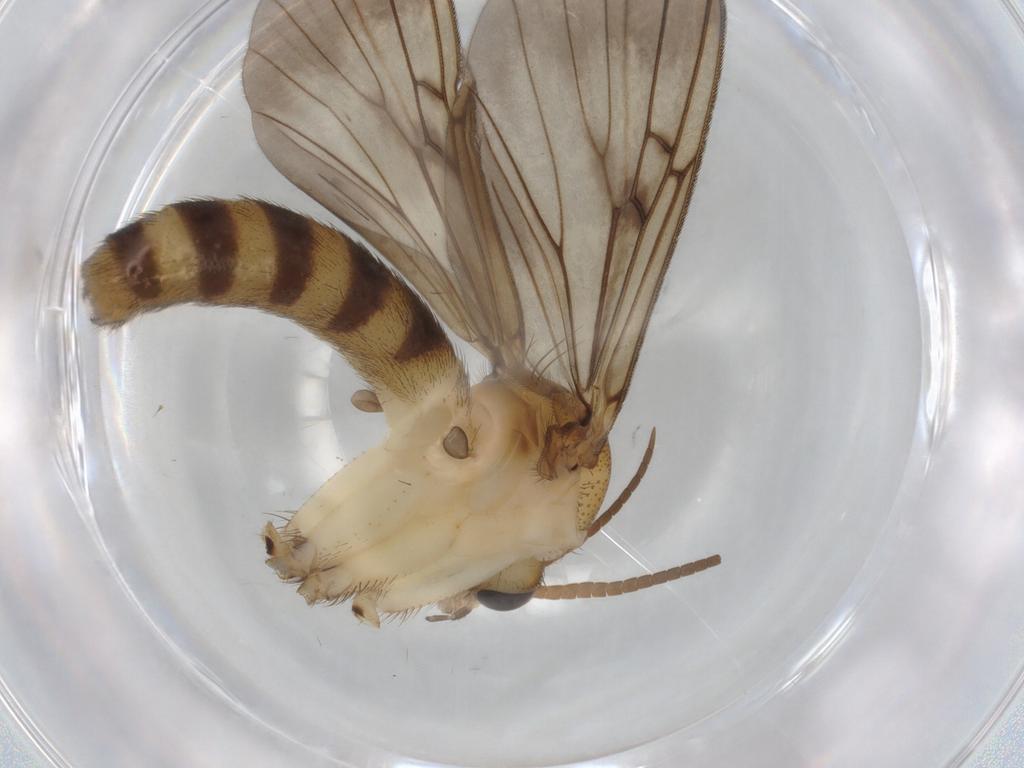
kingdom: Animalia
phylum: Arthropoda
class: Insecta
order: Diptera
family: Mycetophilidae
